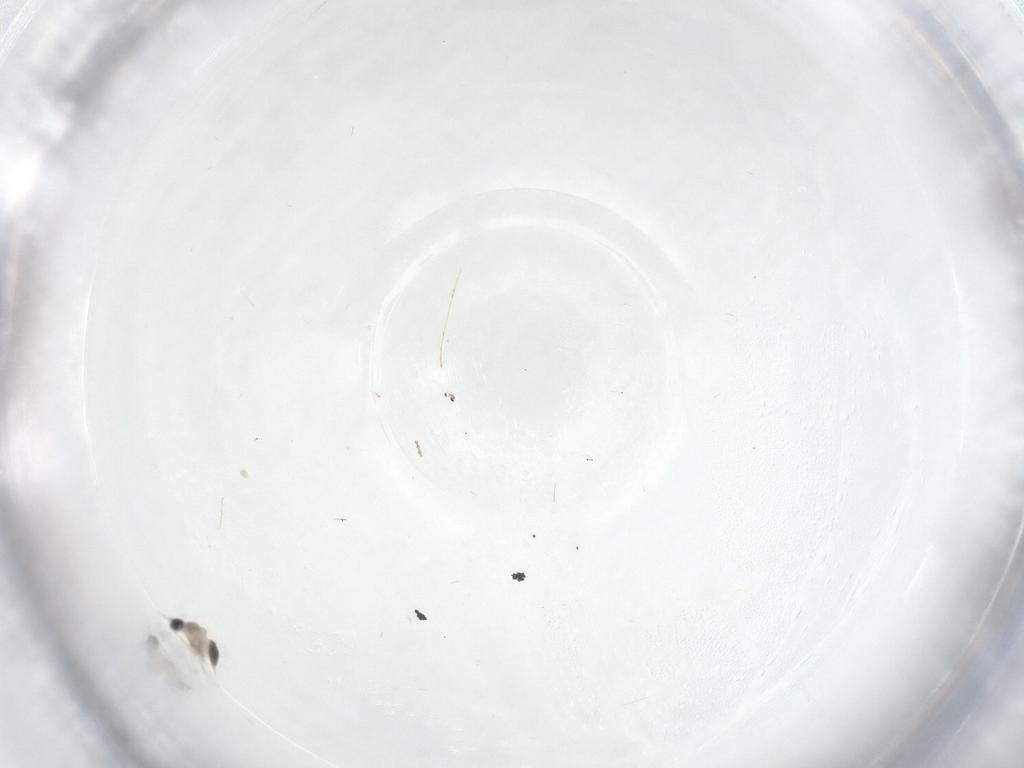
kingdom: Animalia
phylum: Arthropoda
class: Insecta
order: Diptera
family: Cecidomyiidae
